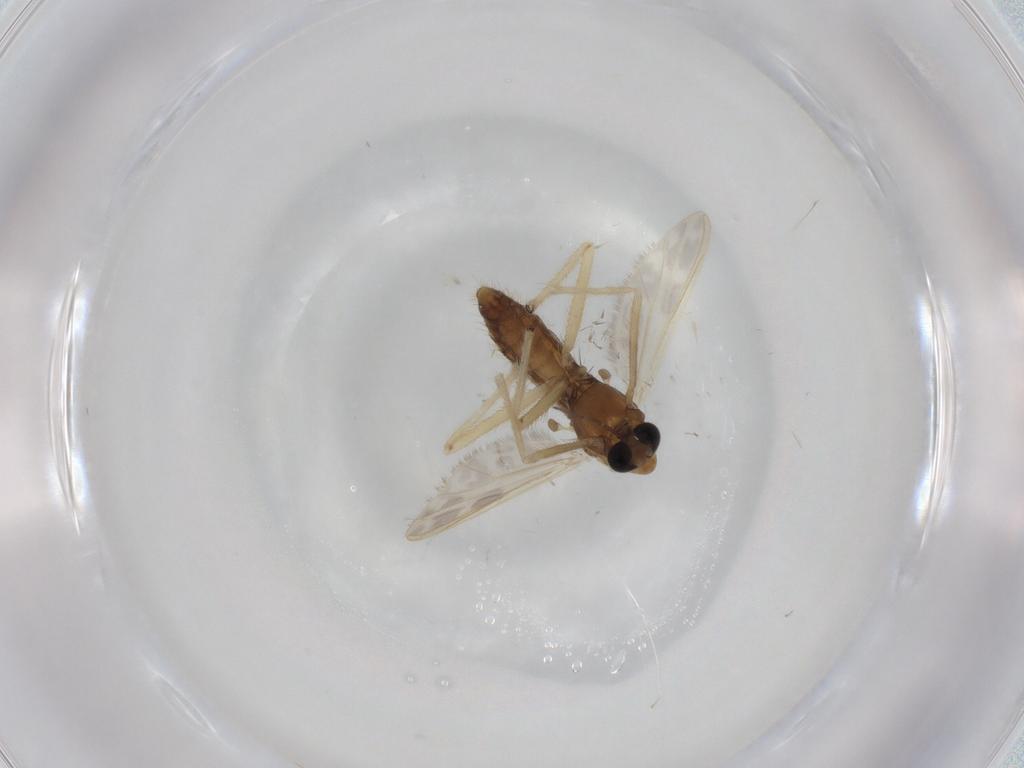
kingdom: Animalia
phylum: Arthropoda
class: Insecta
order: Diptera
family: Chironomidae
